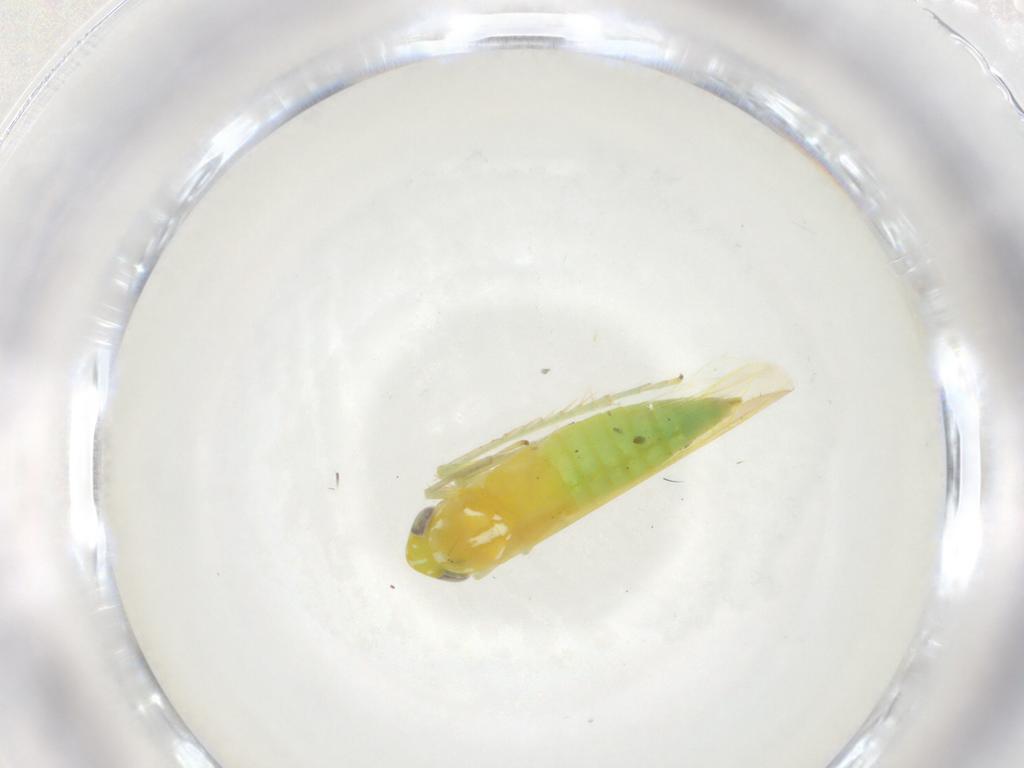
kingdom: Animalia
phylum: Arthropoda
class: Insecta
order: Hemiptera
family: Cicadellidae
